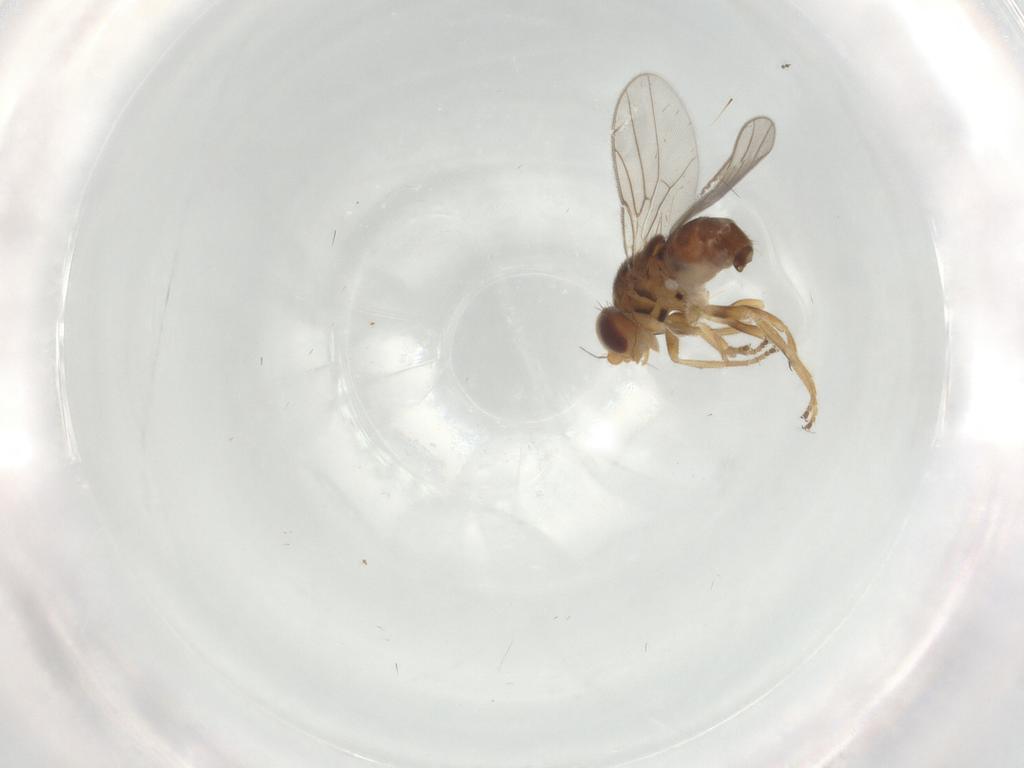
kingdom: Animalia
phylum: Arthropoda
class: Insecta
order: Diptera
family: Chloropidae
